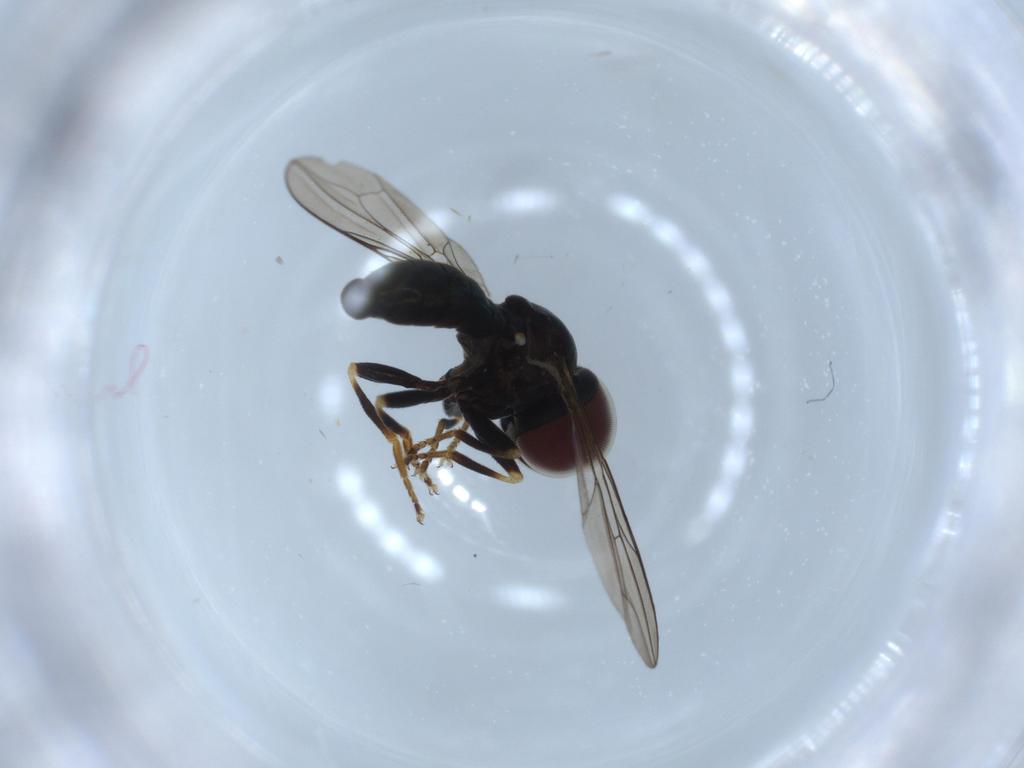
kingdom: Animalia
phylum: Arthropoda
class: Insecta
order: Diptera
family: Pipunculidae
